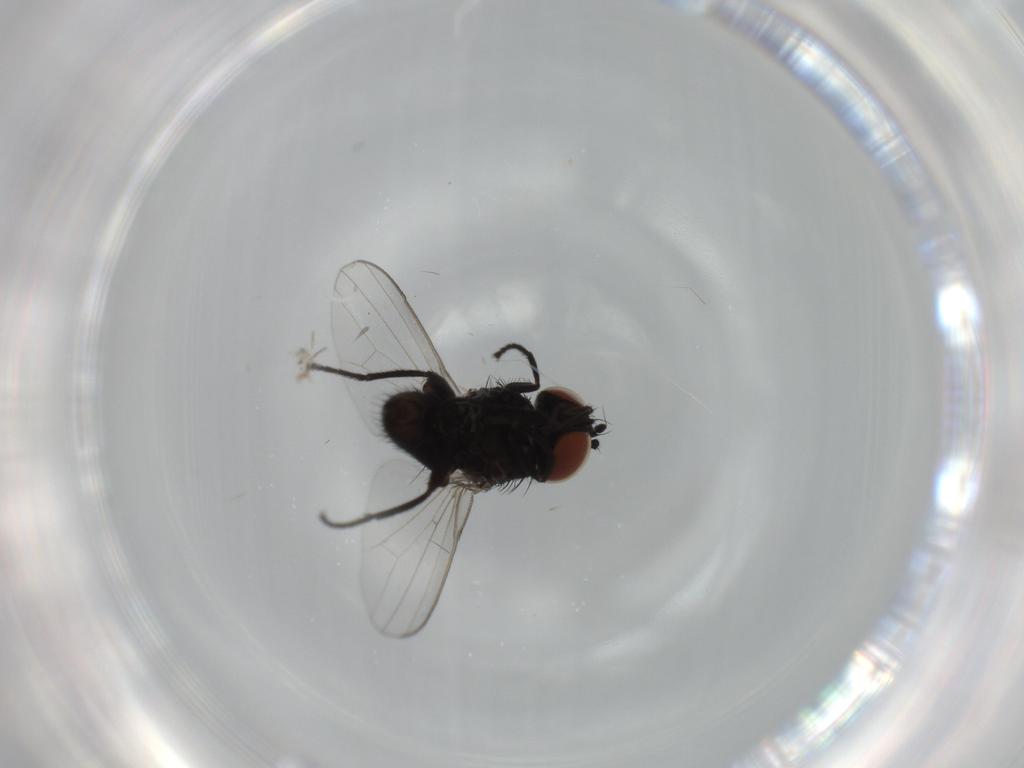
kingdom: Animalia
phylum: Arthropoda
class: Insecta
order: Diptera
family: Milichiidae
